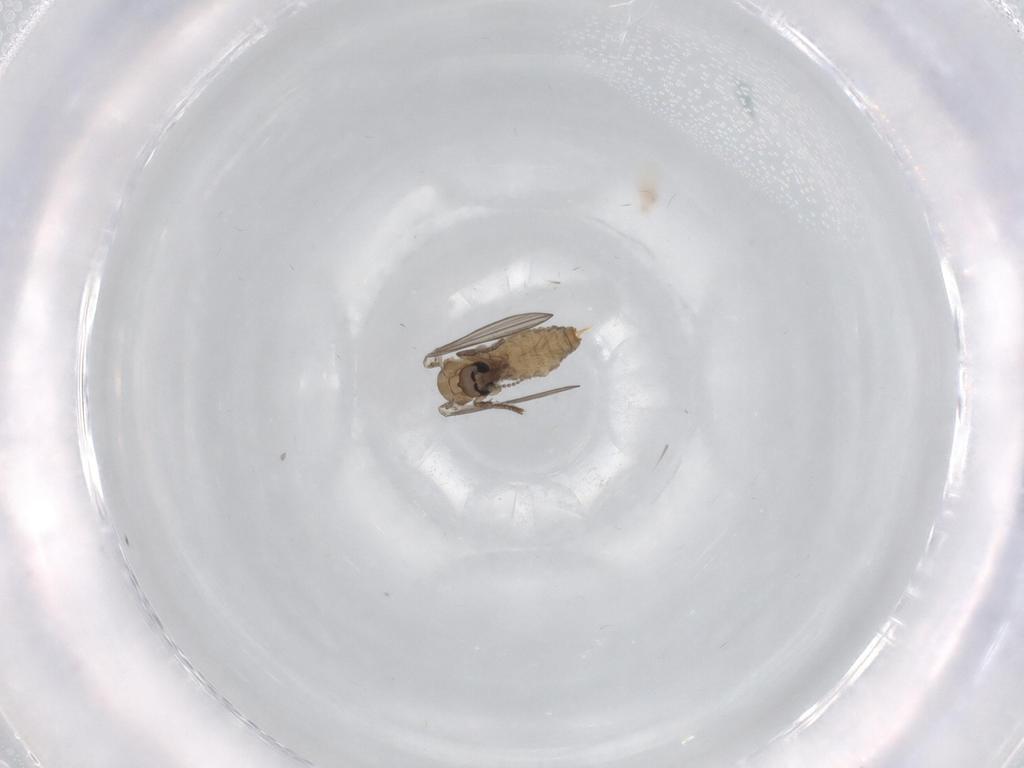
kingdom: Animalia
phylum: Arthropoda
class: Insecta
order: Diptera
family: Psychodidae
